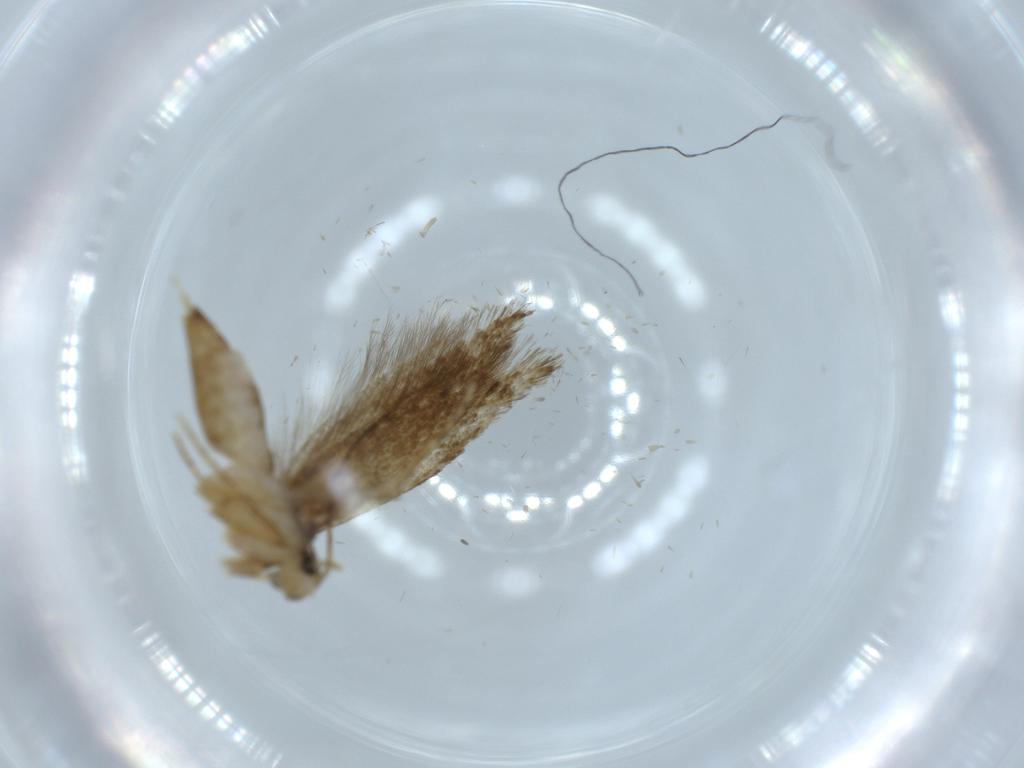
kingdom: Animalia
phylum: Arthropoda
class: Insecta
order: Lepidoptera
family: Tineidae
